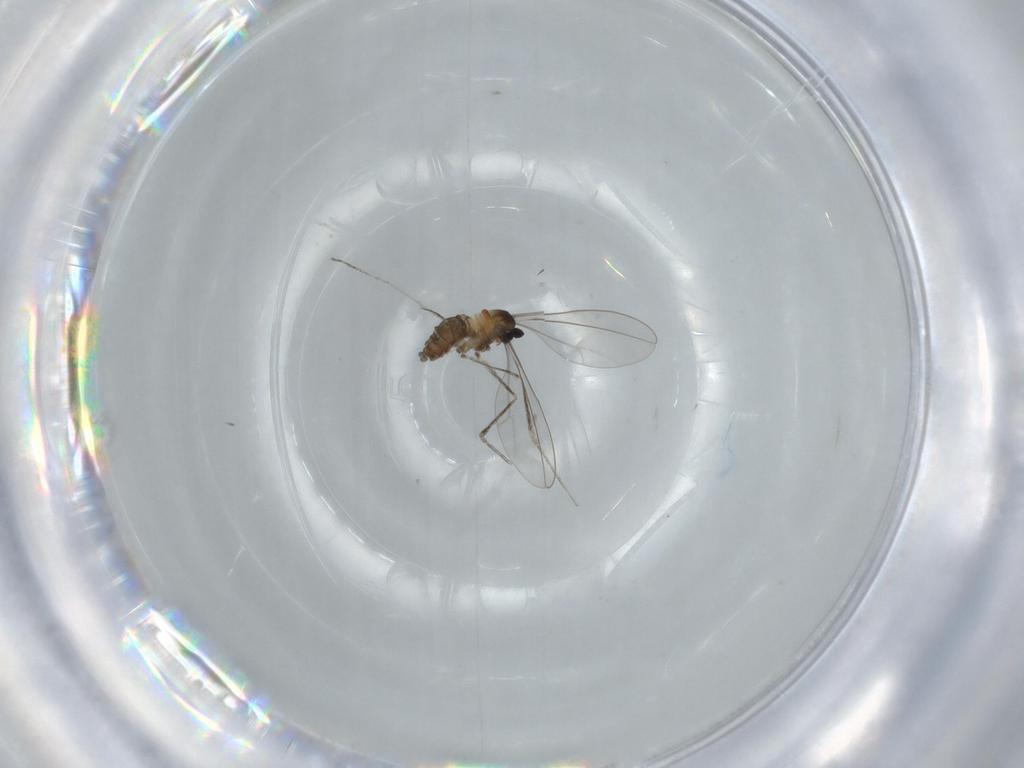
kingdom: Animalia
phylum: Arthropoda
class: Insecta
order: Diptera
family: Cecidomyiidae
